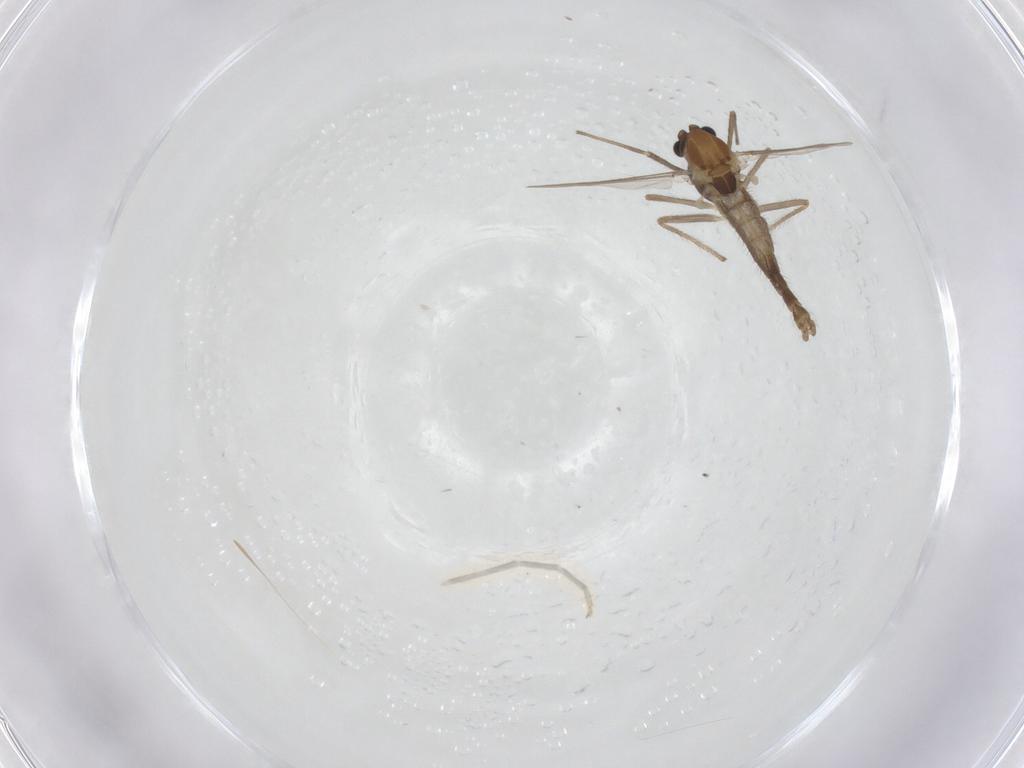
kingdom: Animalia
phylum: Arthropoda
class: Insecta
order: Diptera
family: Chironomidae
